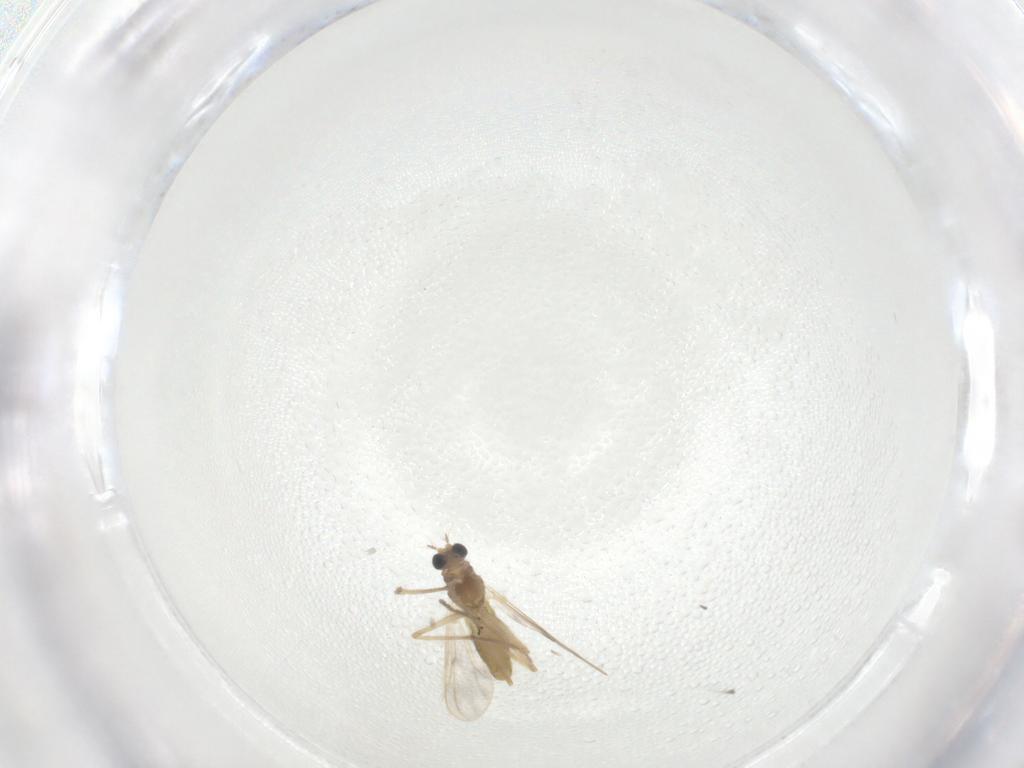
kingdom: Animalia
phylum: Arthropoda
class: Insecta
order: Diptera
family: Chironomidae
